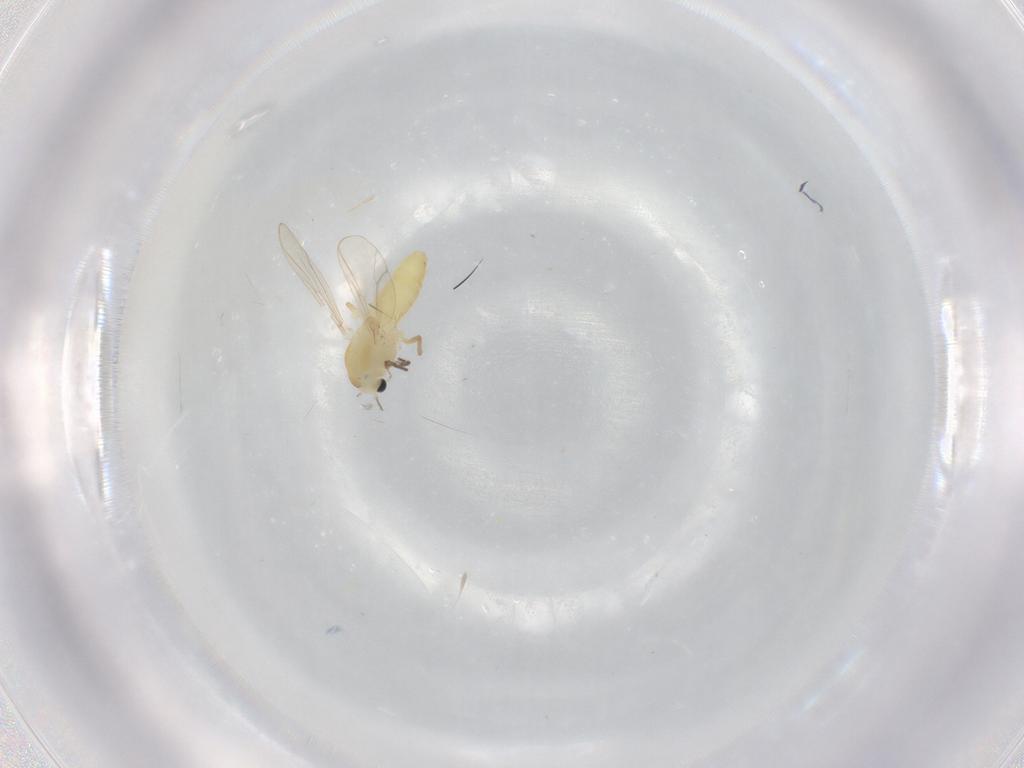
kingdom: Animalia
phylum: Arthropoda
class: Insecta
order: Diptera
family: Chironomidae
